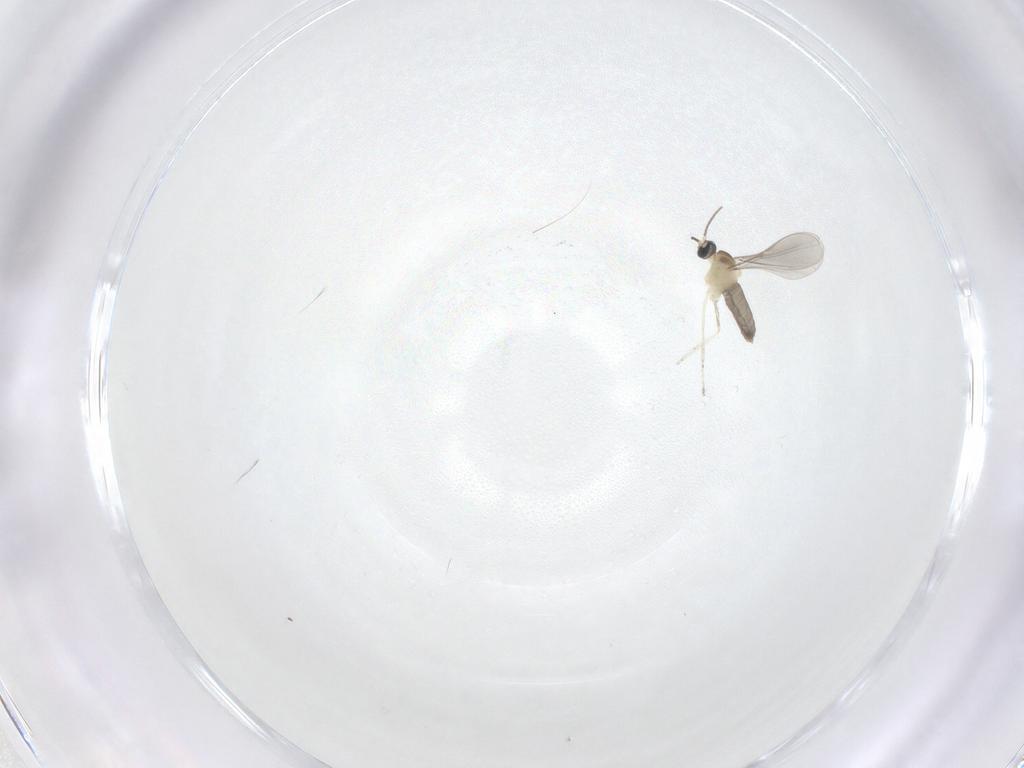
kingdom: Animalia
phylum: Arthropoda
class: Insecta
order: Diptera
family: Cecidomyiidae
